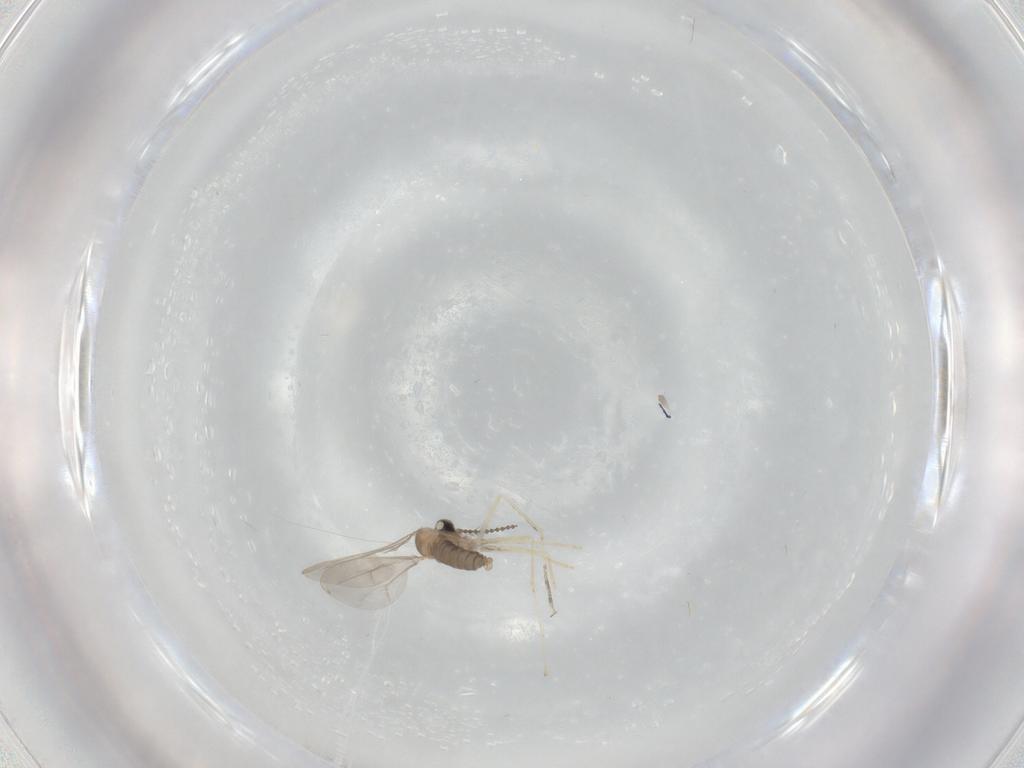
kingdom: Animalia
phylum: Arthropoda
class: Insecta
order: Diptera
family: Cecidomyiidae
